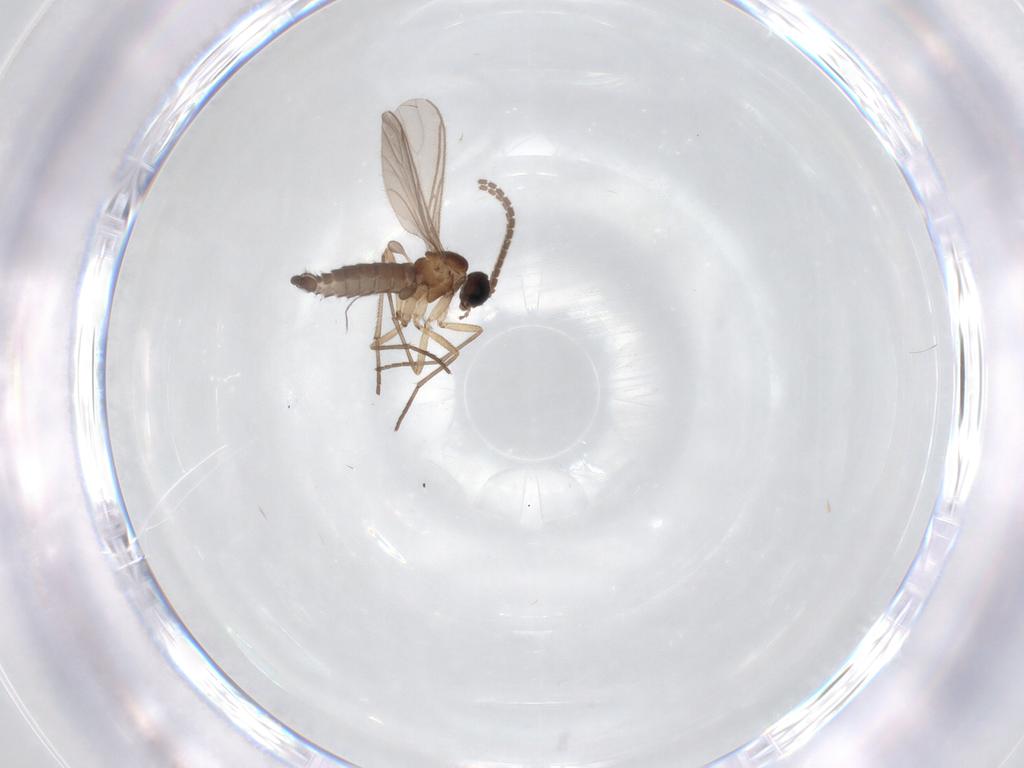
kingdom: Animalia
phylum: Arthropoda
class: Insecta
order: Diptera
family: Sciaridae
